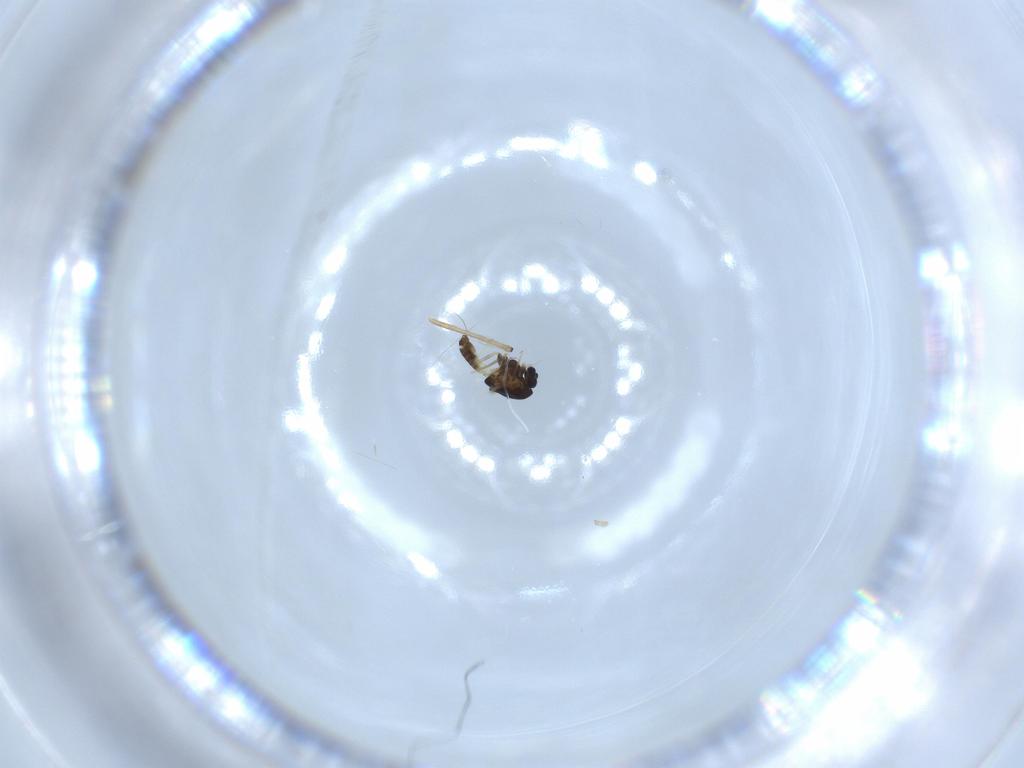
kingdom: Animalia
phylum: Arthropoda
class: Insecta
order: Diptera
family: Chironomidae
